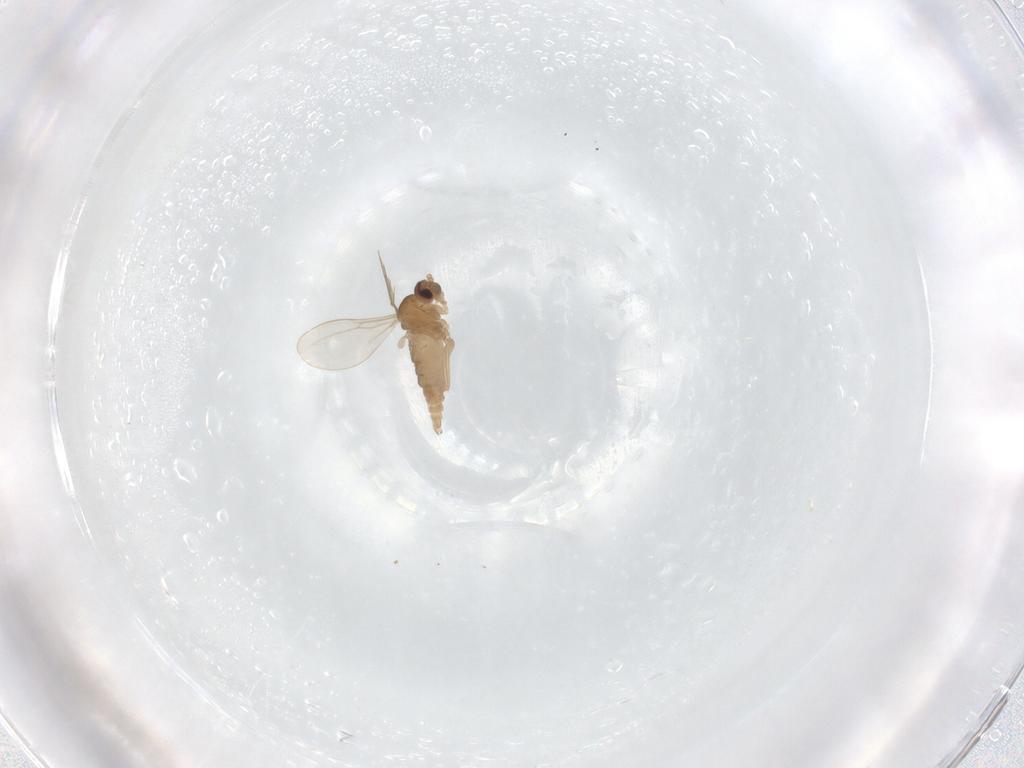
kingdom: Animalia
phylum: Arthropoda
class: Insecta
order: Diptera
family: Cecidomyiidae
